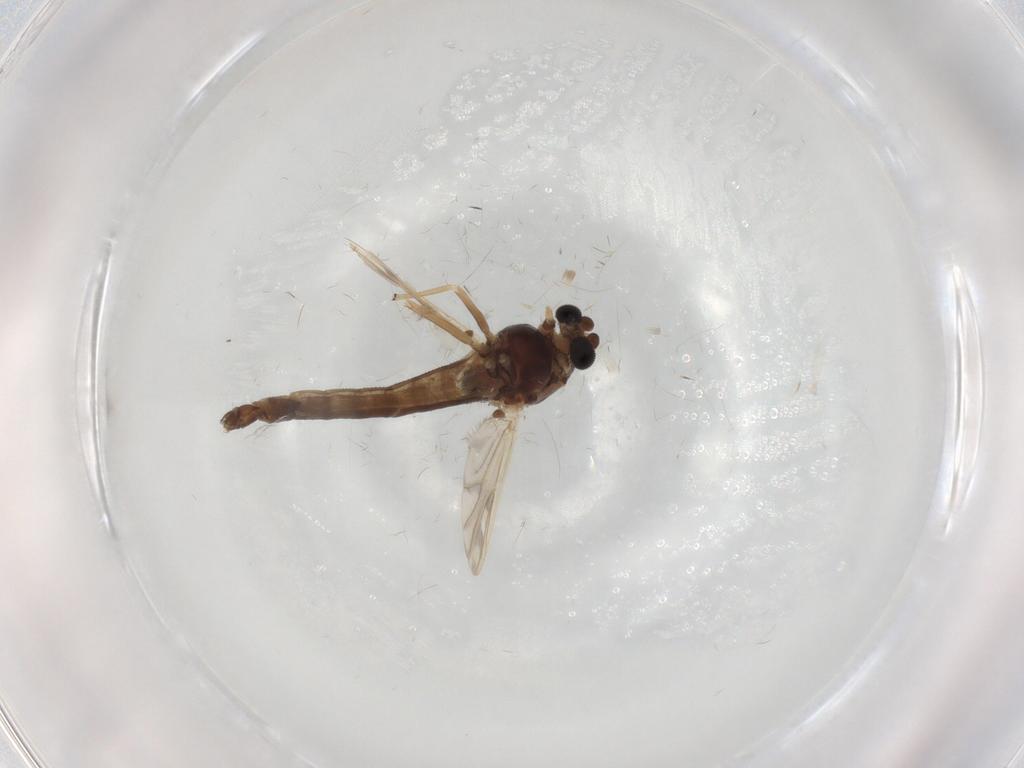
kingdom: Animalia
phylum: Arthropoda
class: Insecta
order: Diptera
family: Chironomidae
